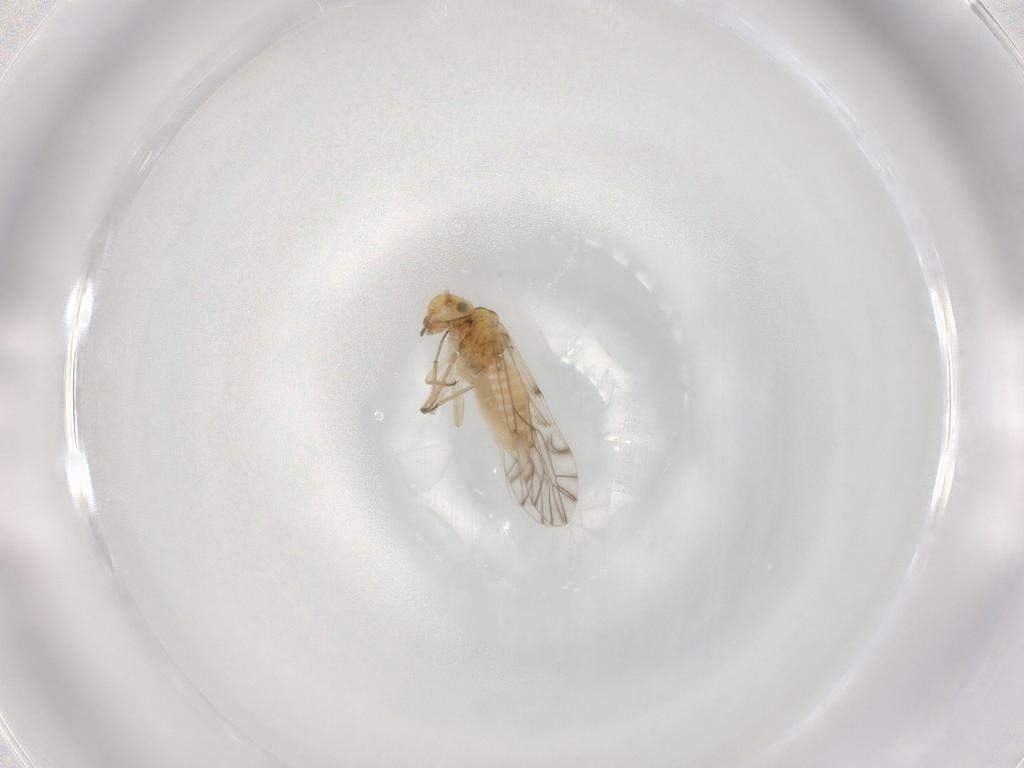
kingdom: Animalia
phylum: Arthropoda
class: Insecta
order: Psocodea
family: Lachesillidae
